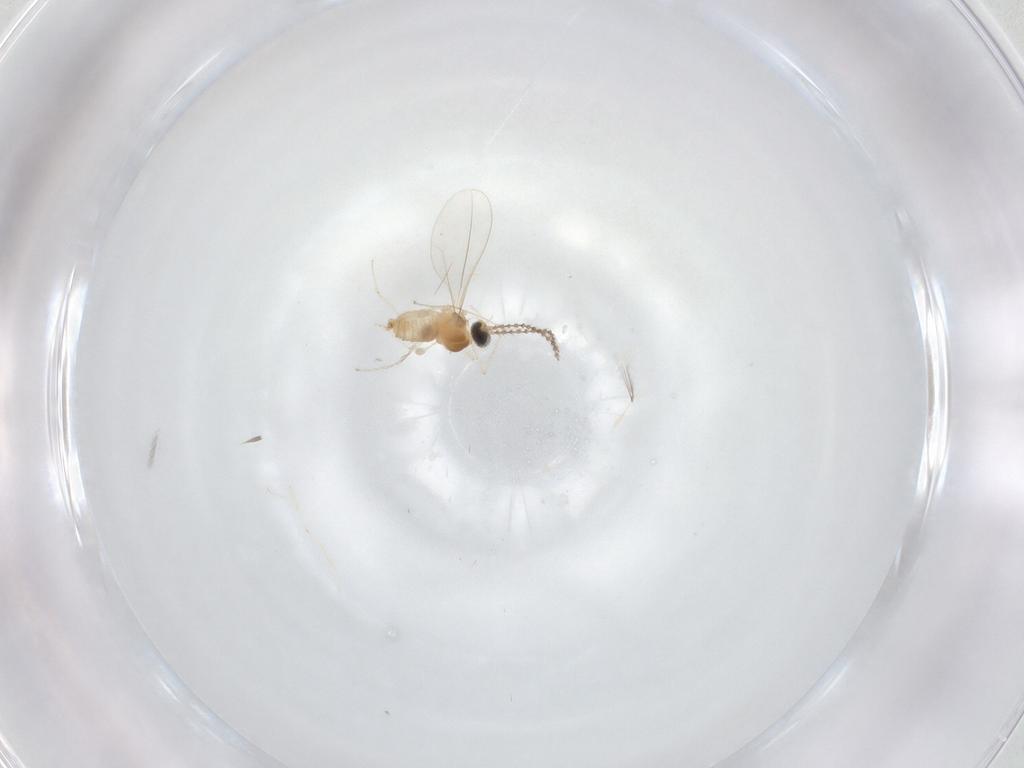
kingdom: Animalia
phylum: Arthropoda
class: Insecta
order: Diptera
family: Cecidomyiidae
